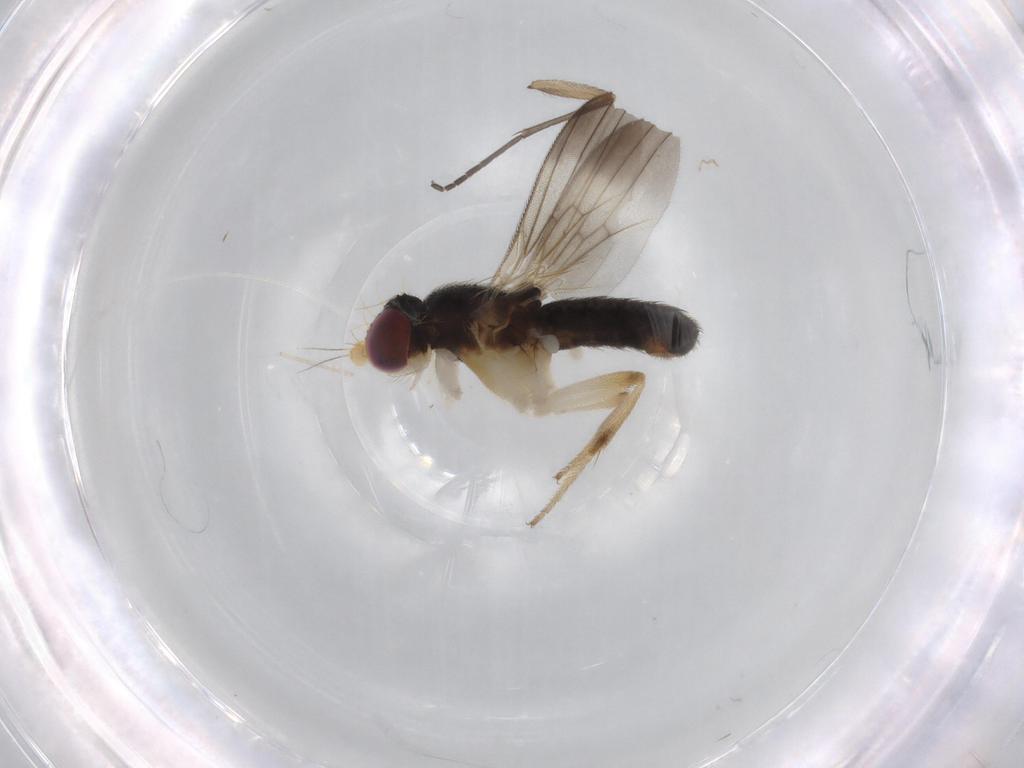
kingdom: Animalia
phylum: Arthropoda
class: Insecta
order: Diptera
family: Clusiidae
